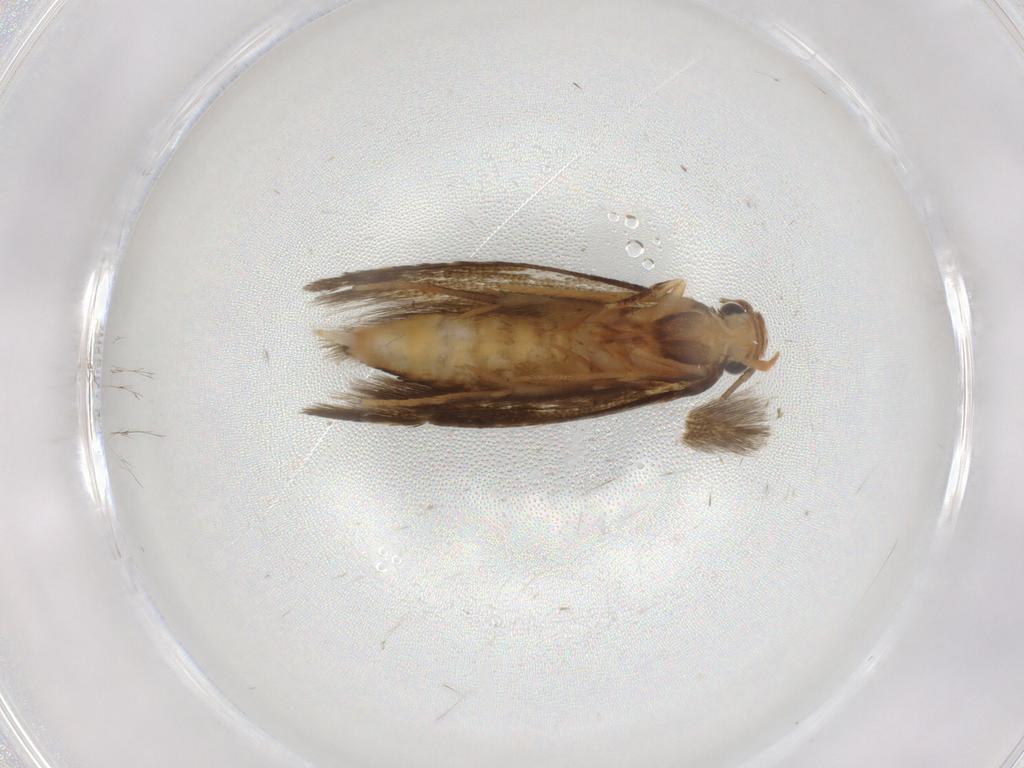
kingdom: Animalia
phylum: Arthropoda
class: Insecta
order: Lepidoptera
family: Tineidae
